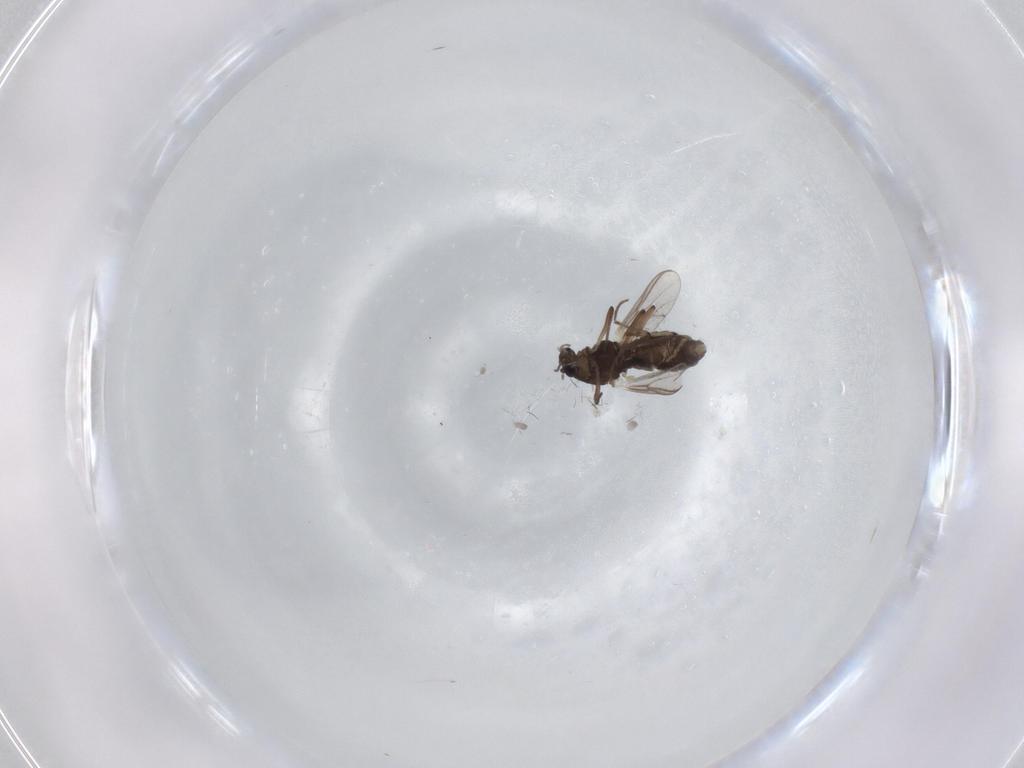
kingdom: Animalia
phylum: Arthropoda
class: Insecta
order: Diptera
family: Chironomidae
